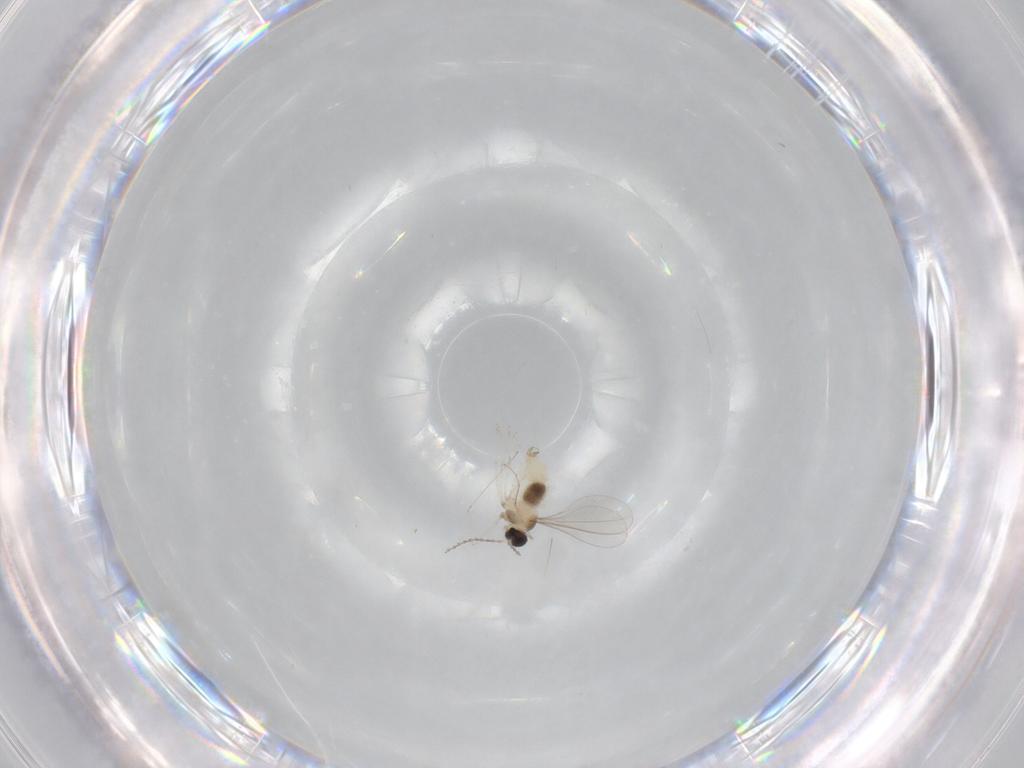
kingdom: Animalia
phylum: Arthropoda
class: Insecta
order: Diptera
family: Cecidomyiidae
